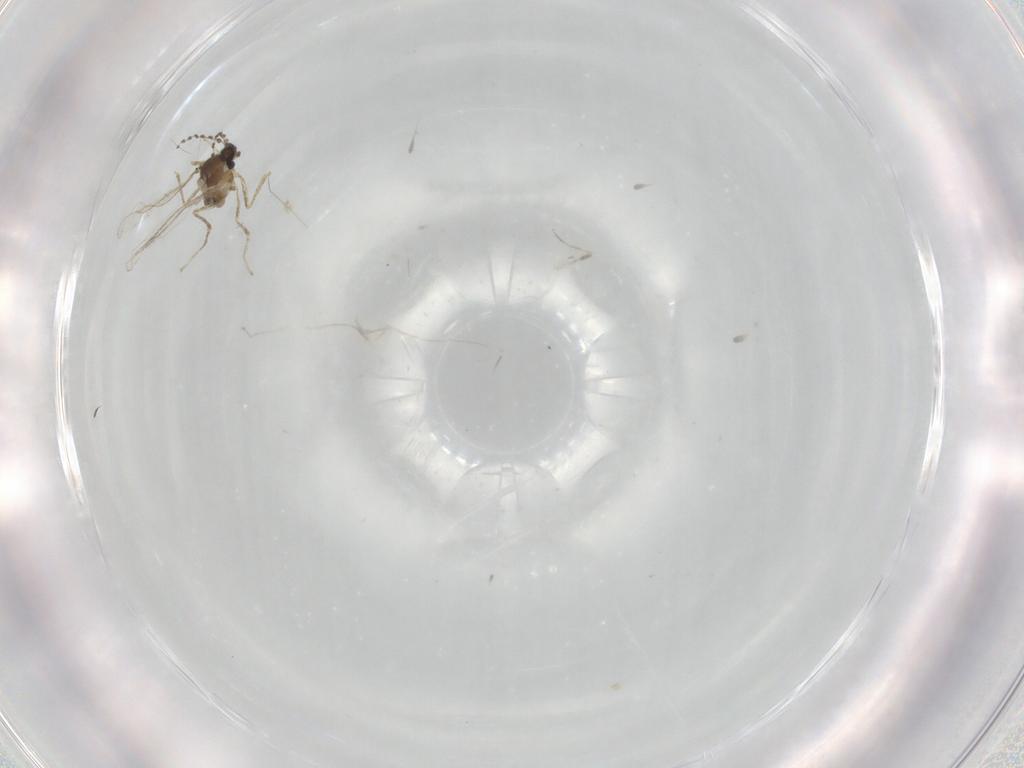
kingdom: Animalia
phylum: Arthropoda
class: Insecta
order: Diptera
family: Cecidomyiidae
